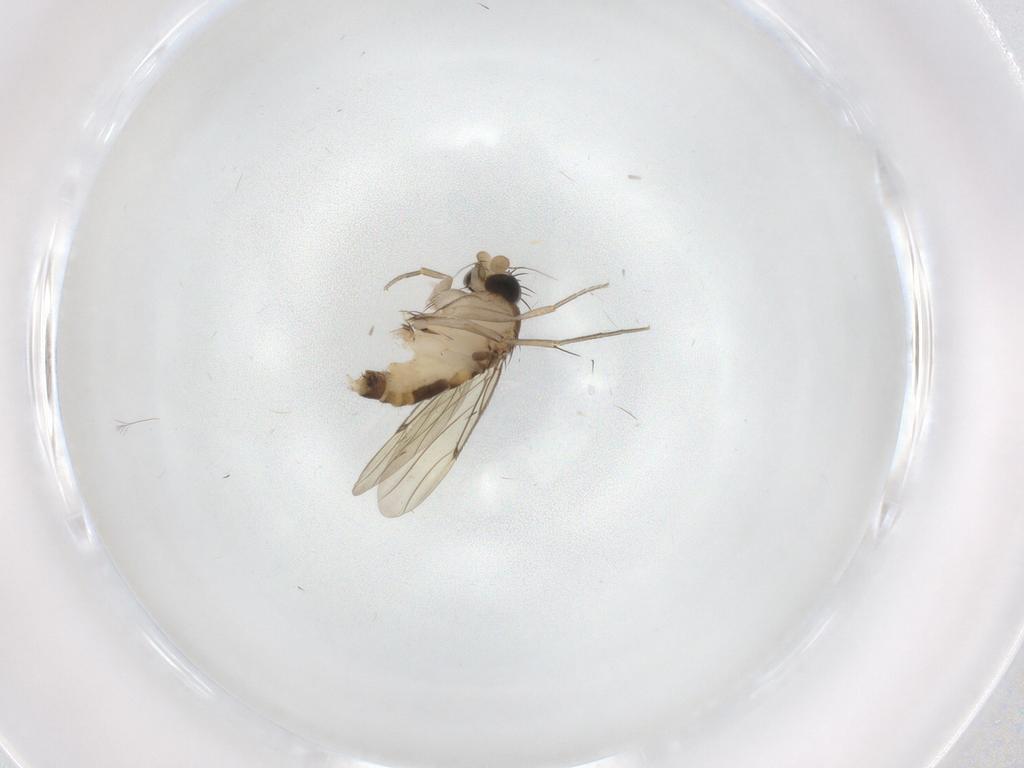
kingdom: Animalia
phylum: Arthropoda
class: Insecta
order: Diptera
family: Phoridae
